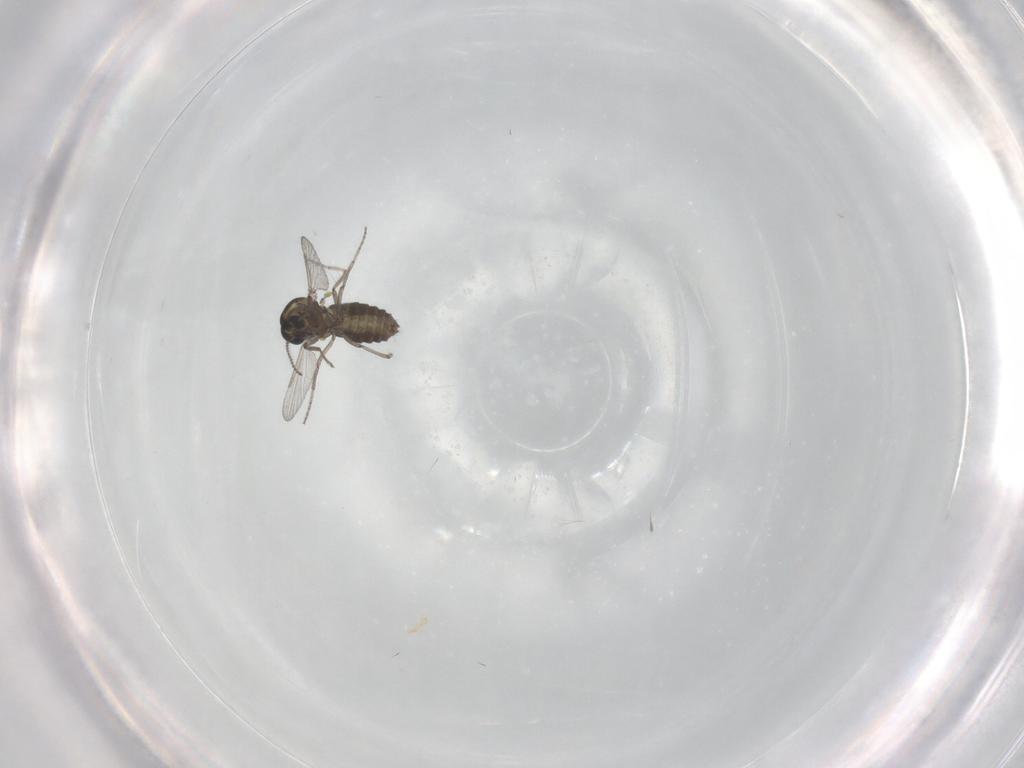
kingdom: Animalia
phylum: Arthropoda
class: Insecta
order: Diptera
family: Ceratopogonidae
